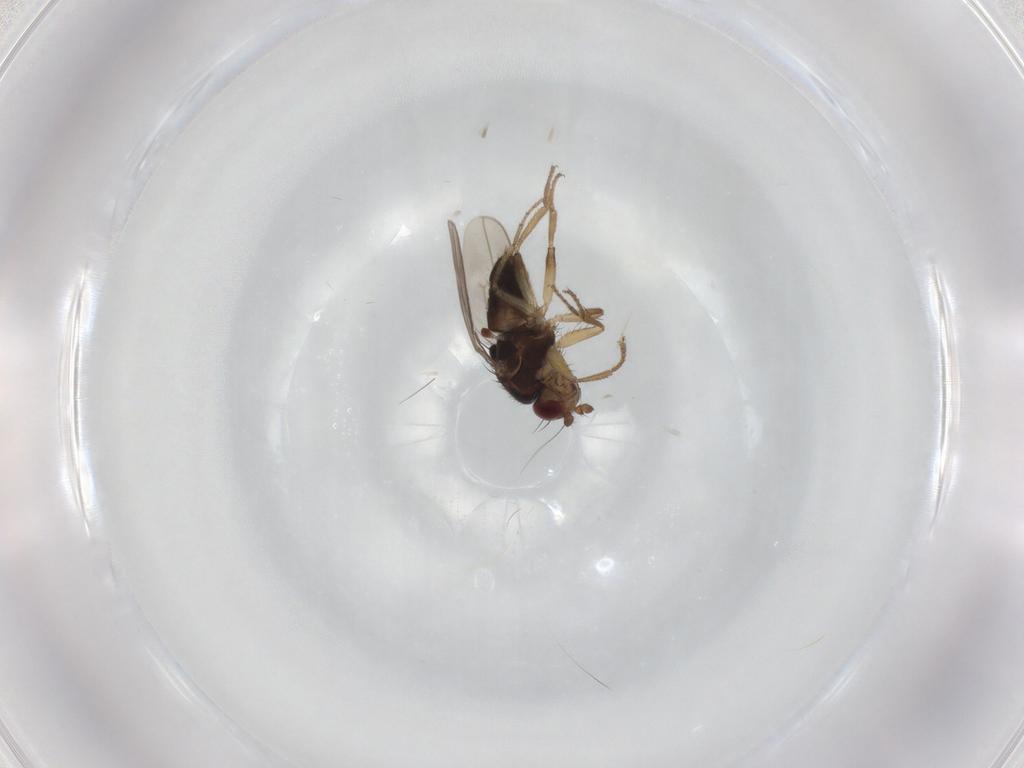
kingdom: Animalia
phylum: Arthropoda
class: Insecta
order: Diptera
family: Sphaeroceridae
